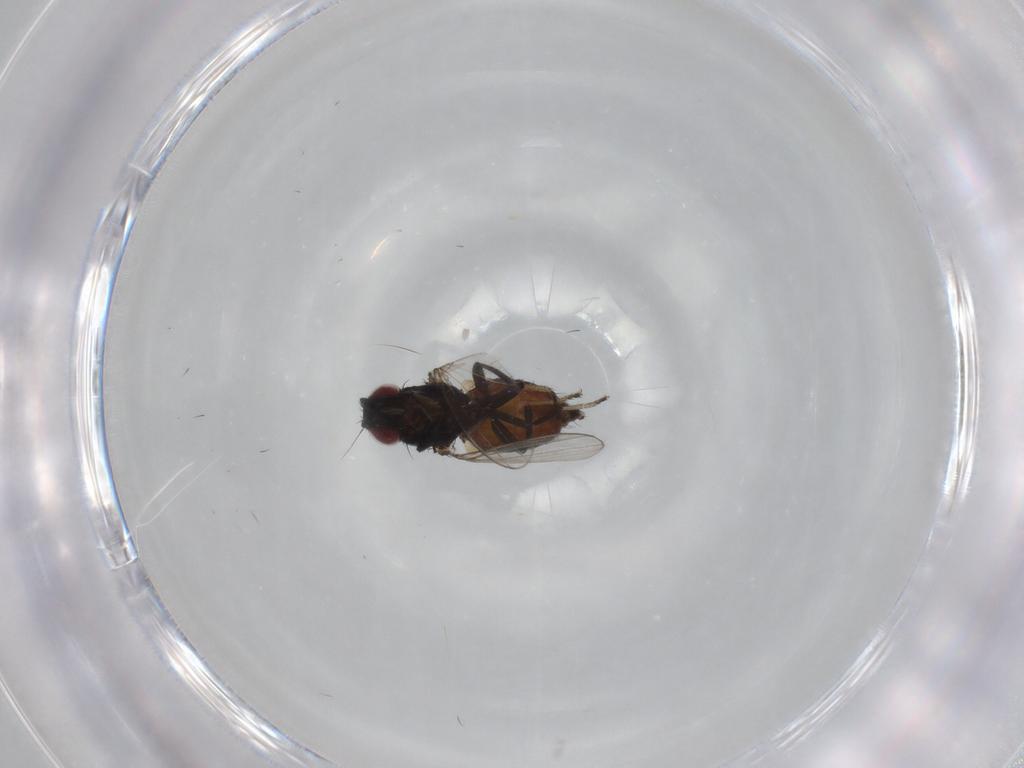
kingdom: Animalia
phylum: Arthropoda
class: Insecta
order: Diptera
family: Milichiidae
